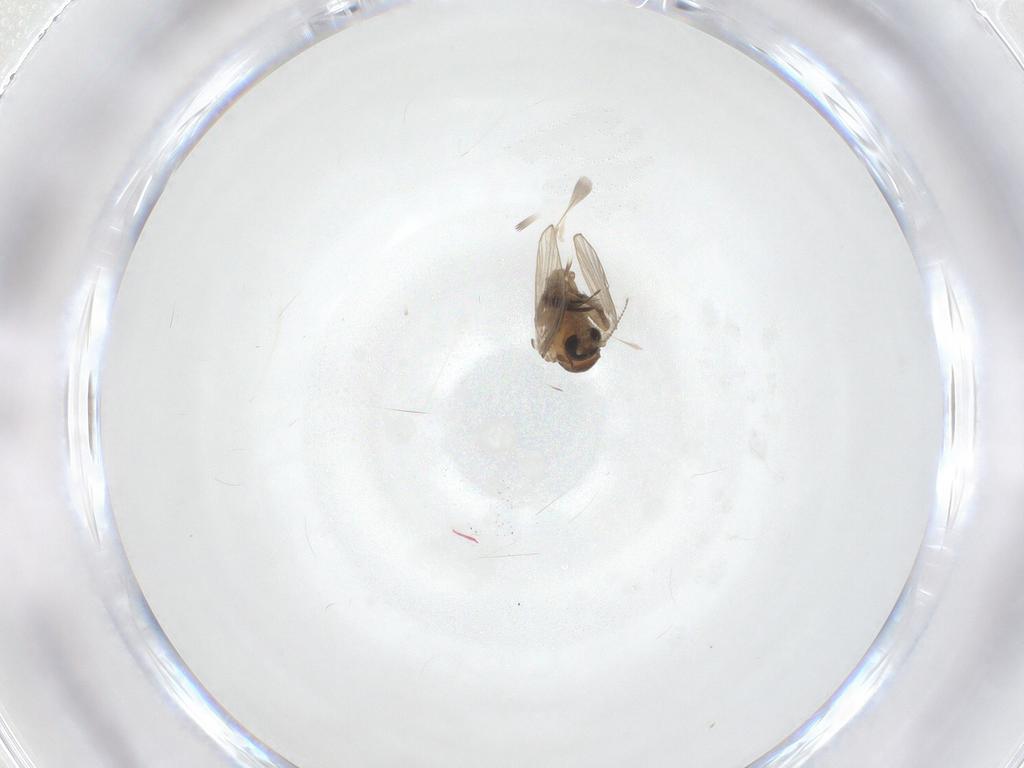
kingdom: Animalia
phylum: Arthropoda
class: Insecta
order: Diptera
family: Psychodidae
